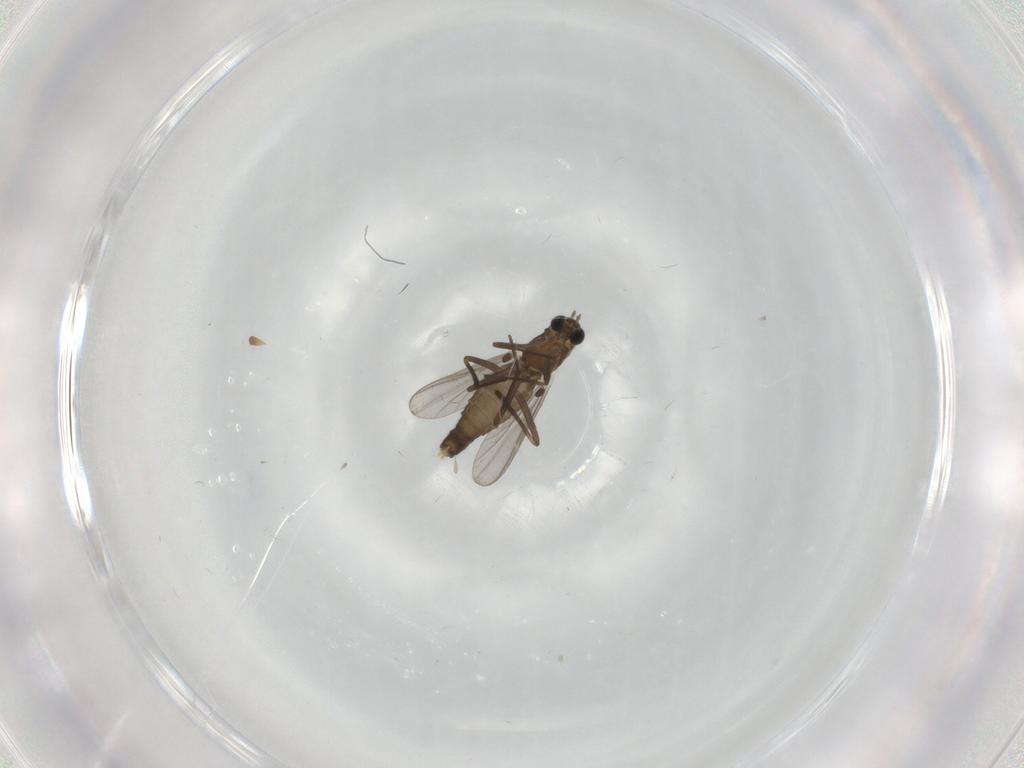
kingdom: Animalia
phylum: Arthropoda
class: Insecta
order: Diptera
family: Chironomidae
